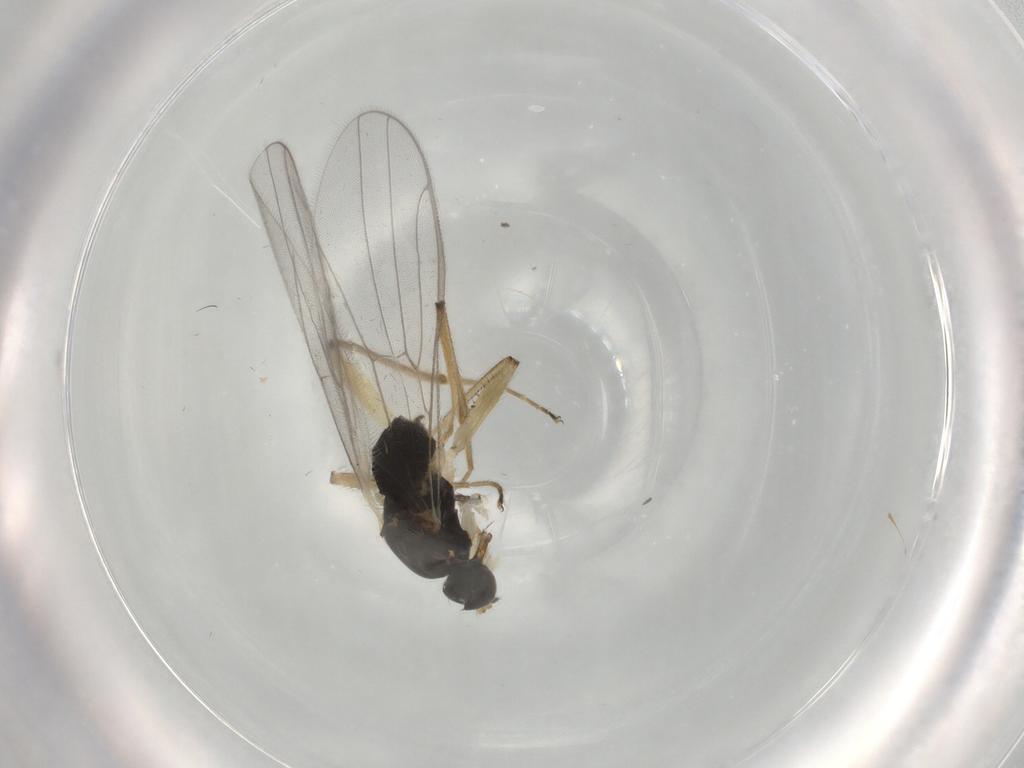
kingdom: Animalia
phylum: Arthropoda
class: Insecta
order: Diptera
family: Hybotidae
